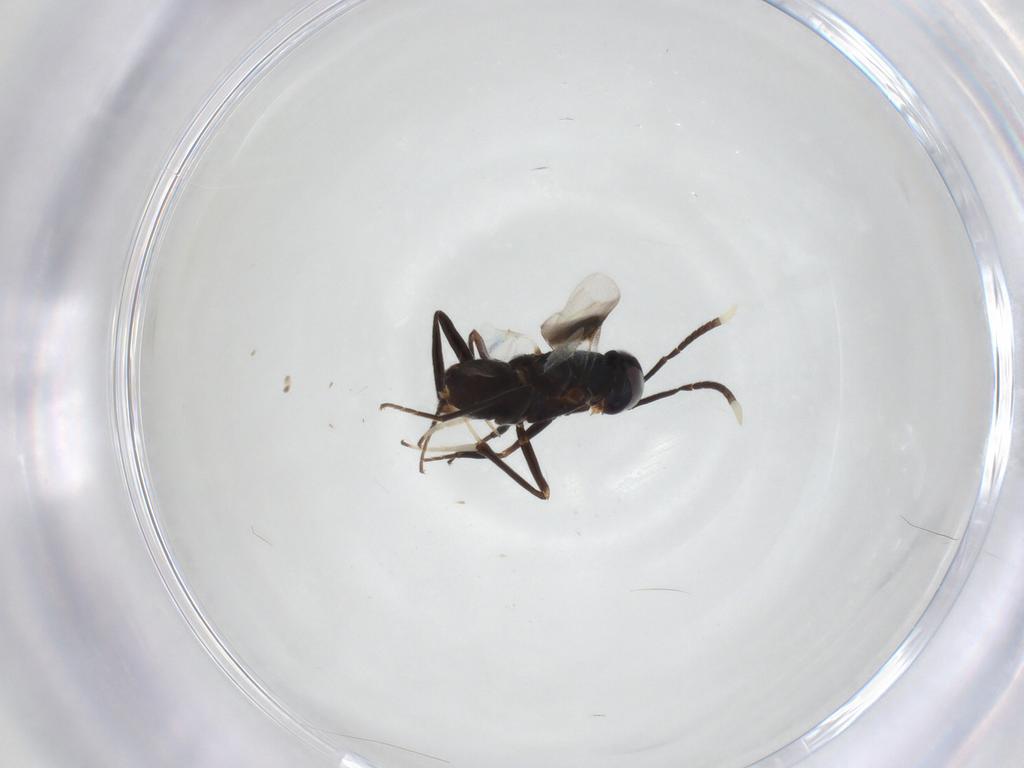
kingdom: Animalia
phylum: Arthropoda
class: Insecta
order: Hymenoptera
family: Encyrtidae
